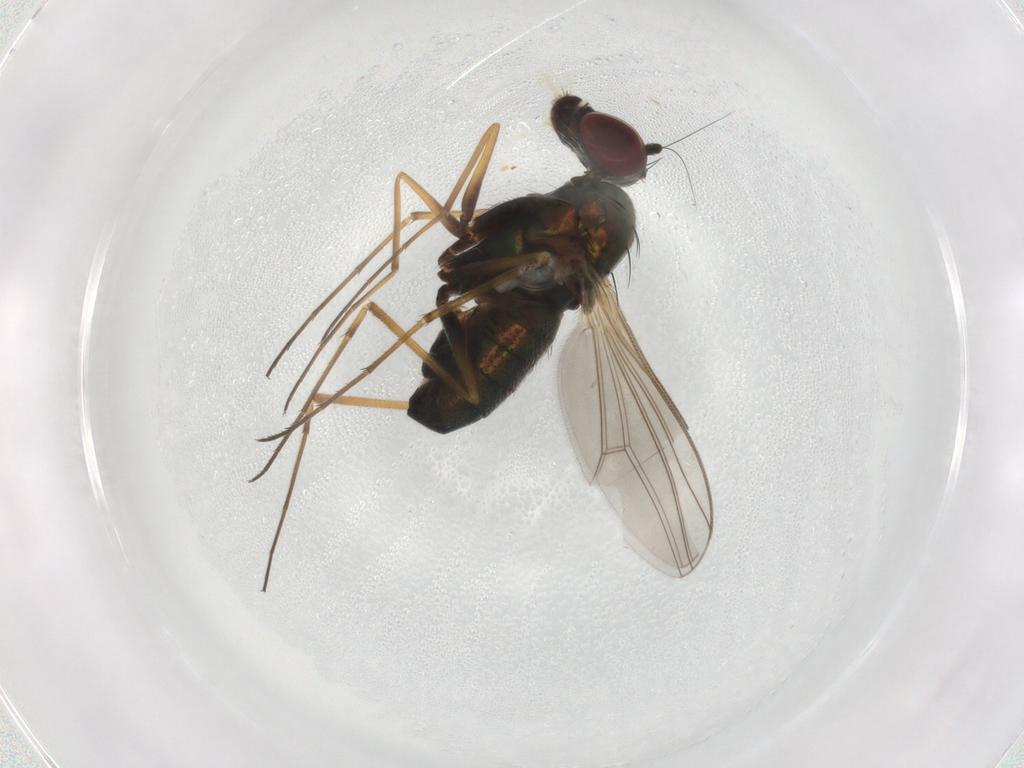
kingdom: Animalia
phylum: Arthropoda
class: Insecta
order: Diptera
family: Dolichopodidae
